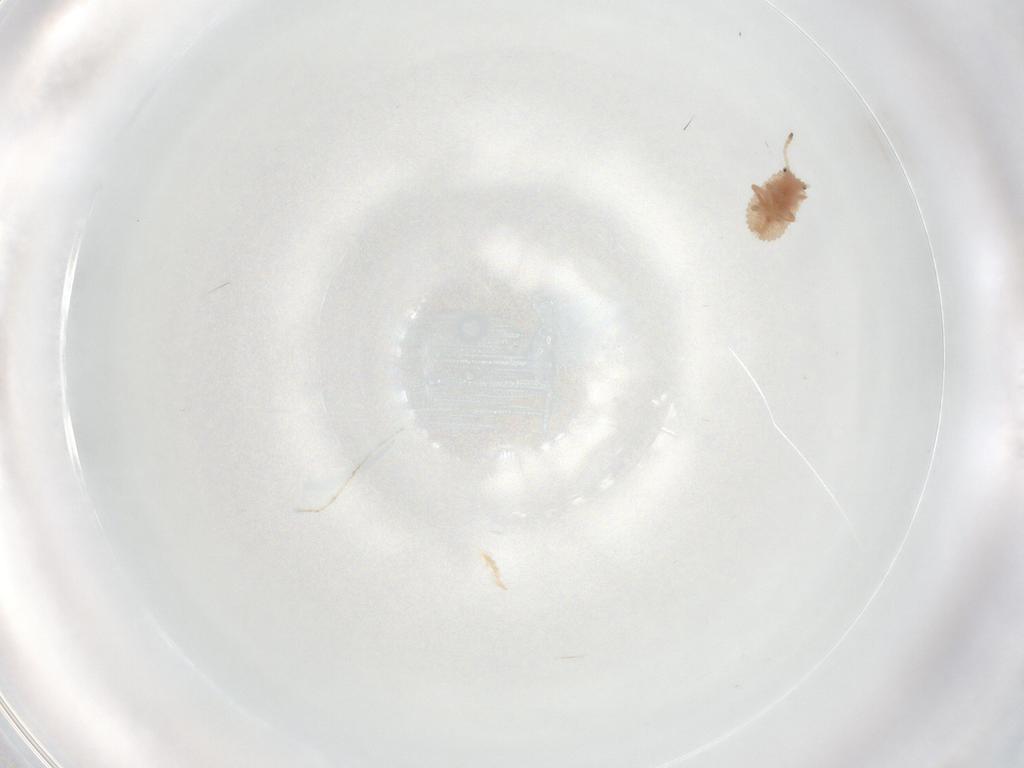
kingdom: Animalia
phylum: Arthropoda
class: Insecta
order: Hemiptera
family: Coccoidea_incertae_sedis
